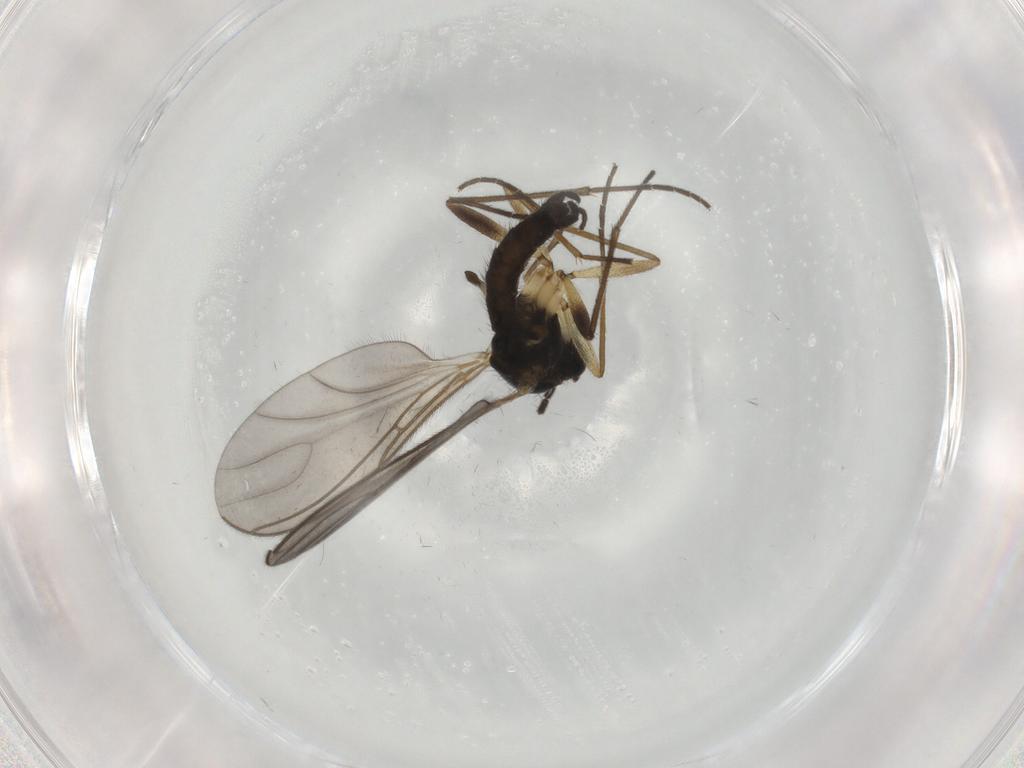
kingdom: Animalia
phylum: Arthropoda
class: Insecta
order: Diptera
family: Sciaridae
